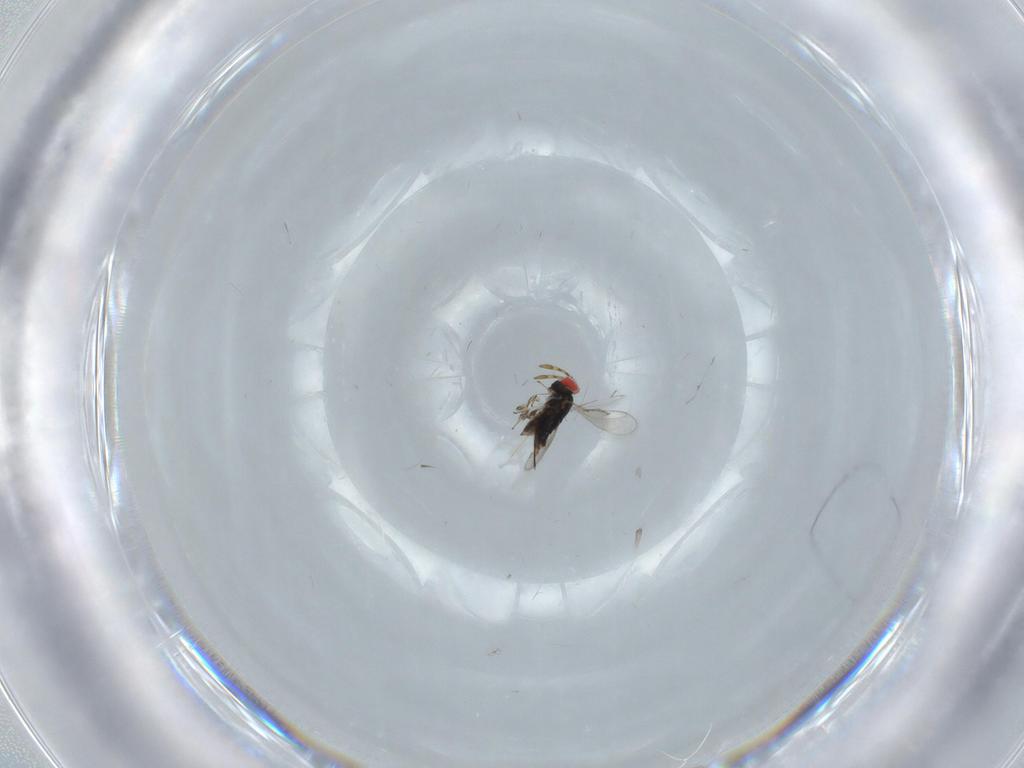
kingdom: Animalia
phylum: Arthropoda
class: Insecta
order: Hymenoptera
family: Azotidae
